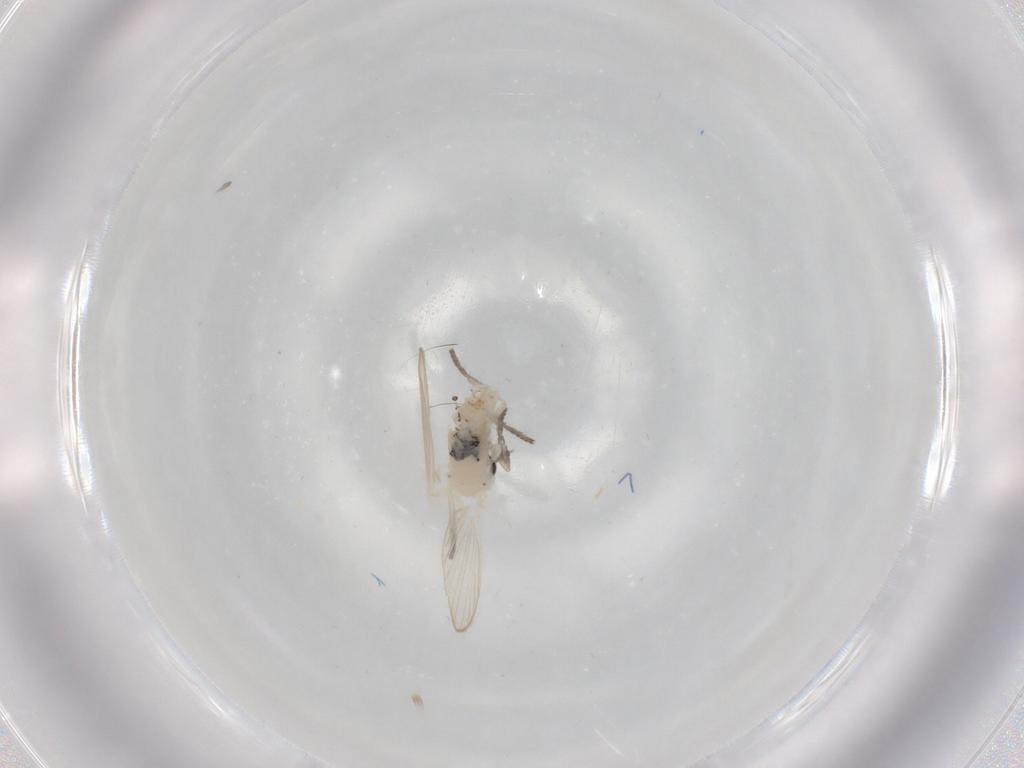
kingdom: Animalia
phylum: Arthropoda
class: Insecta
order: Diptera
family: Psychodidae
